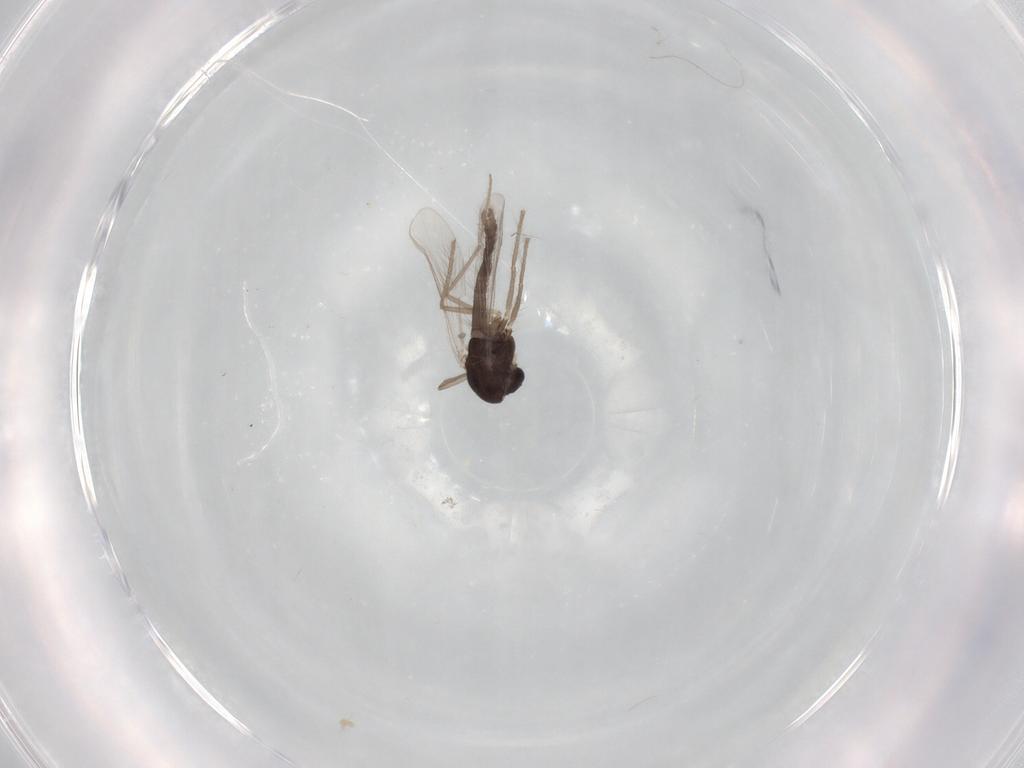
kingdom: Animalia
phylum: Arthropoda
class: Insecta
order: Diptera
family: Chironomidae
